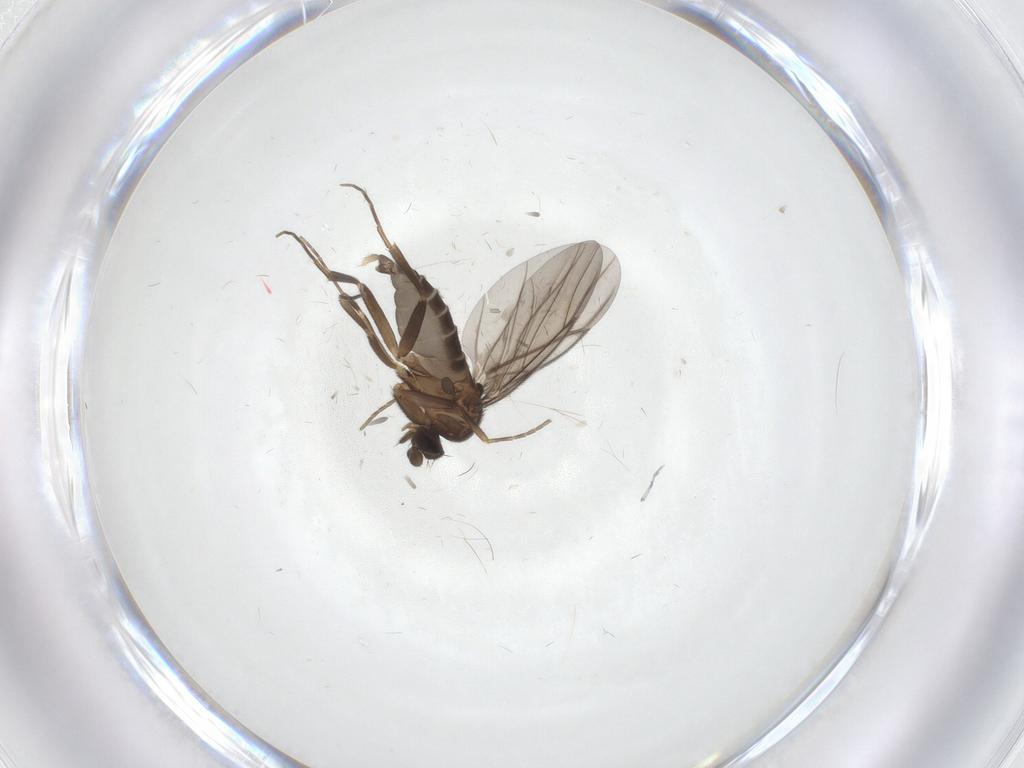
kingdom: Animalia
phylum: Arthropoda
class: Insecta
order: Diptera
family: Phoridae
